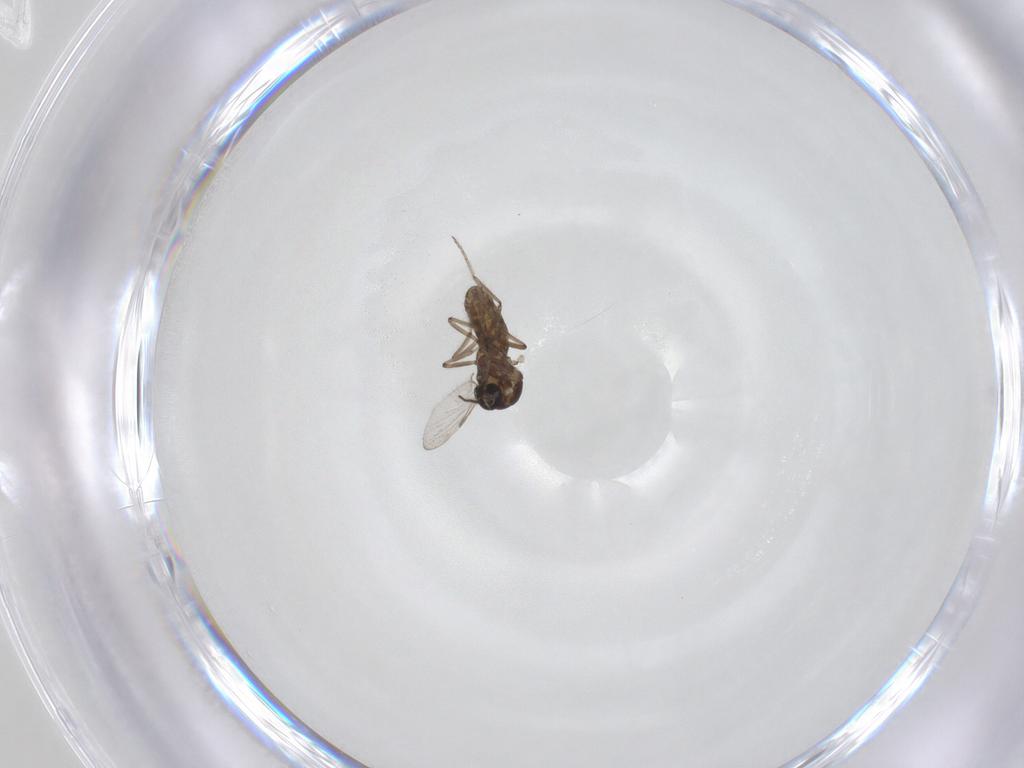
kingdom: Animalia
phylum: Arthropoda
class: Insecta
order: Diptera
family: Ceratopogonidae
